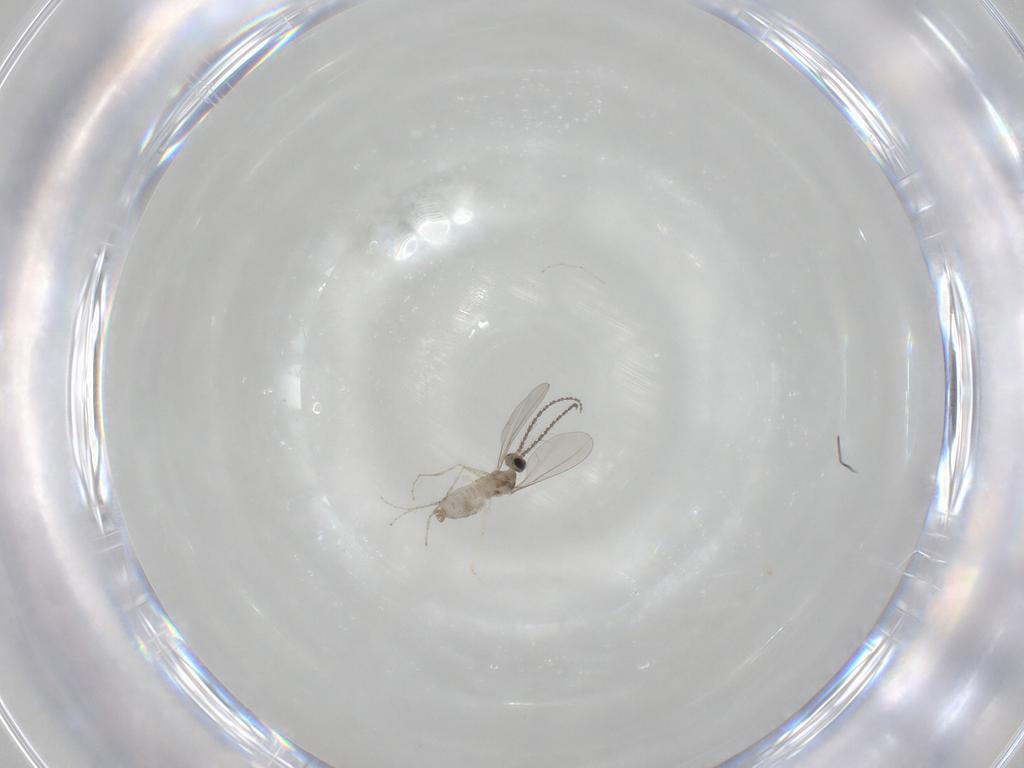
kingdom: Animalia
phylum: Arthropoda
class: Insecta
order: Diptera
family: Cecidomyiidae
